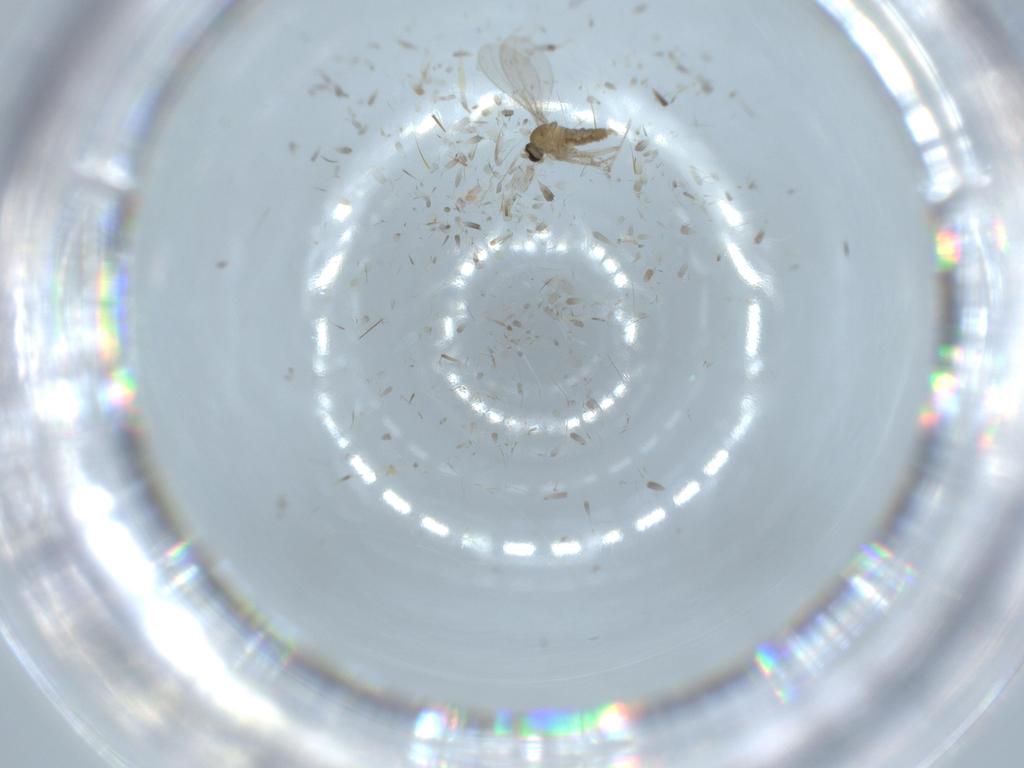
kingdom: Animalia
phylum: Arthropoda
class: Insecta
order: Diptera
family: Cecidomyiidae
